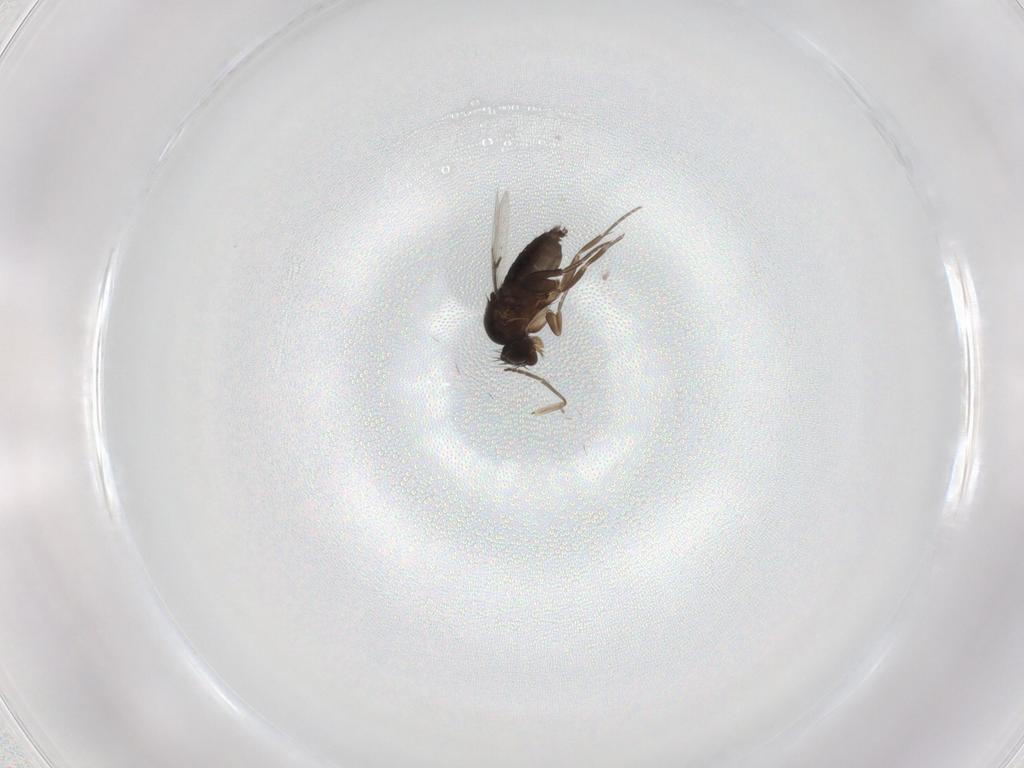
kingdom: Animalia
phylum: Arthropoda
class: Insecta
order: Diptera
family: Phoridae
